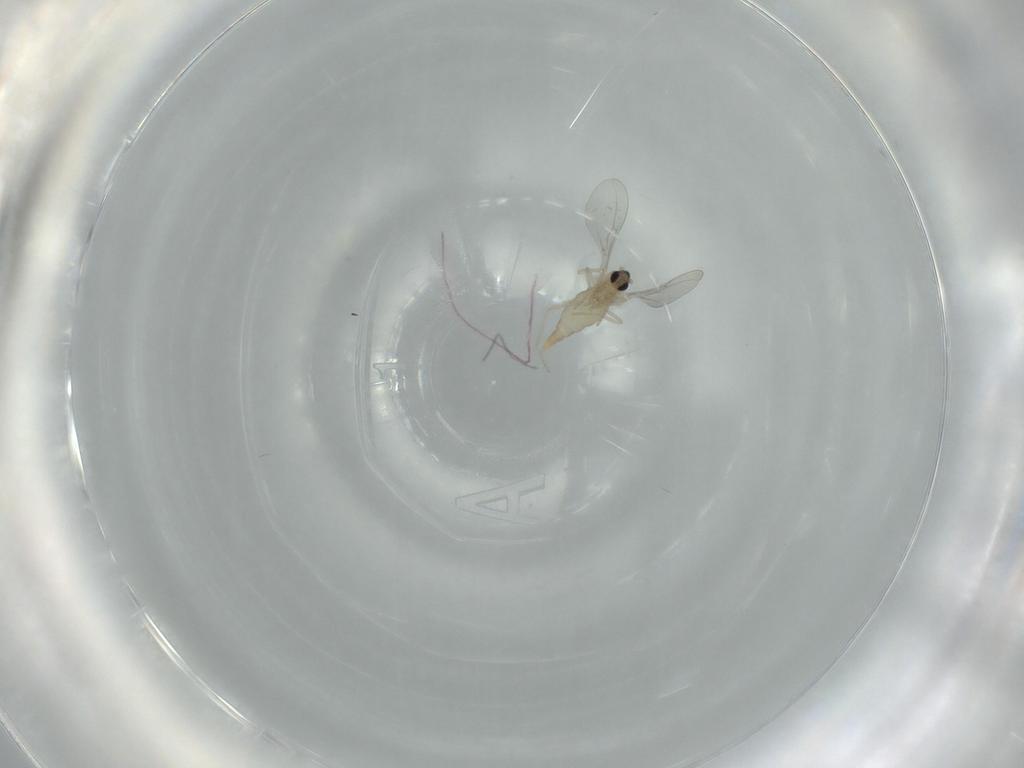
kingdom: Animalia
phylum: Arthropoda
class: Insecta
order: Diptera
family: Cecidomyiidae
